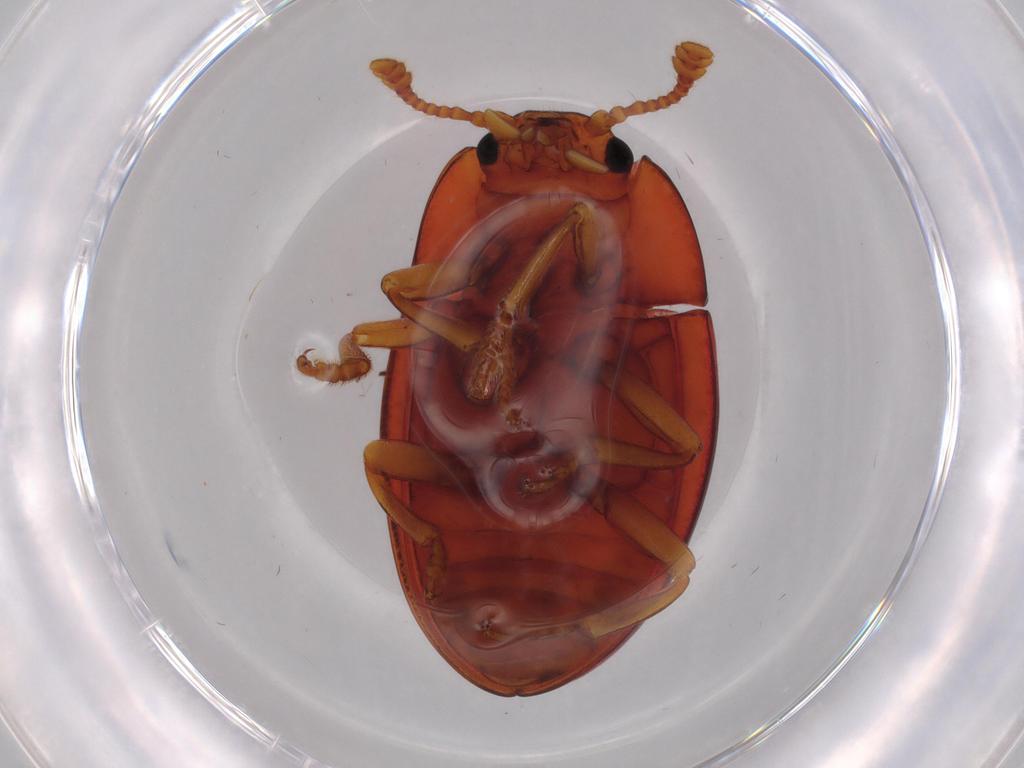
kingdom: Animalia
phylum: Arthropoda
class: Insecta
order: Coleoptera
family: Erotylidae
